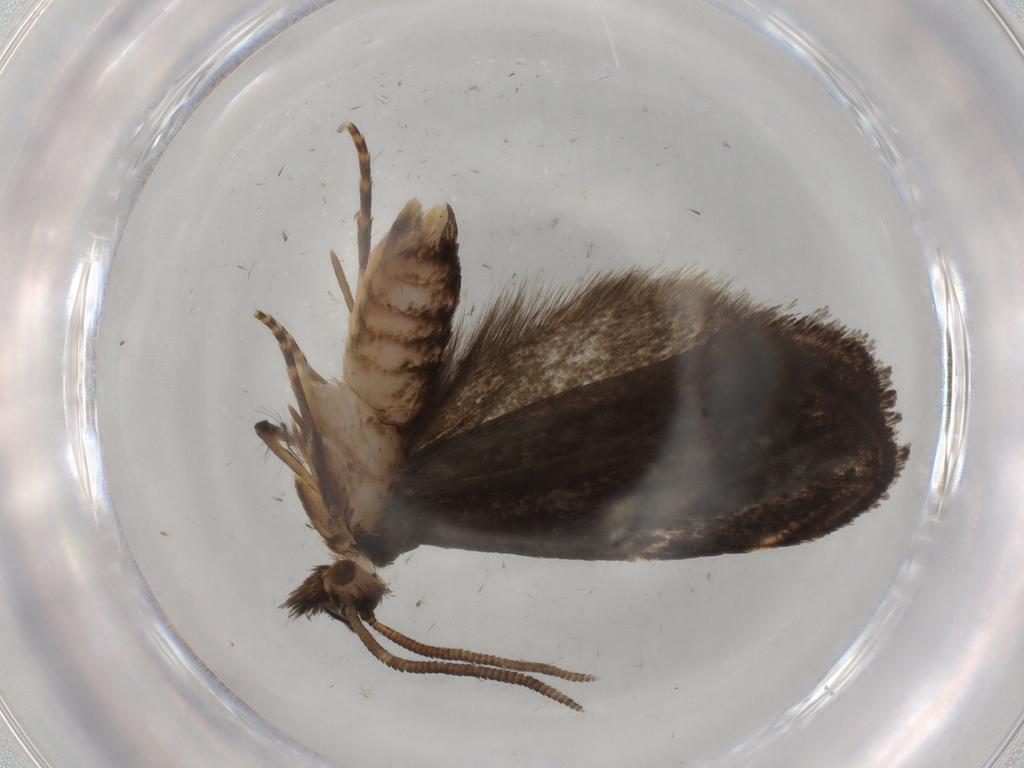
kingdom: Animalia
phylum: Arthropoda
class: Insecta
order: Lepidoptera
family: Dryadaulidae
